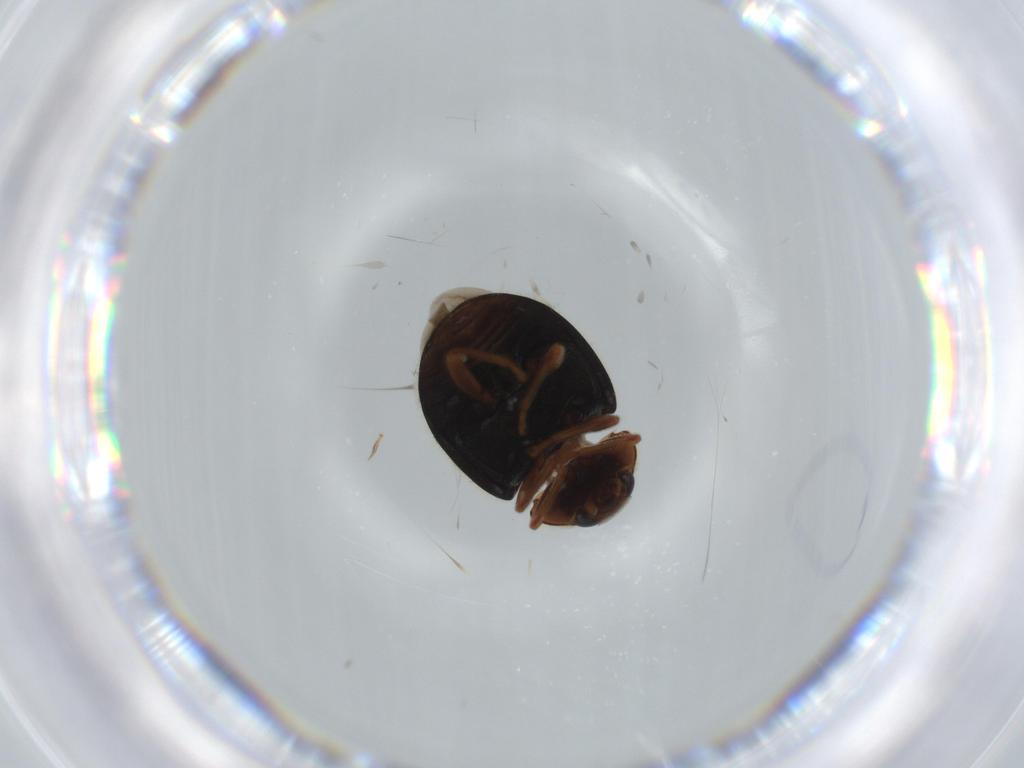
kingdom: Animalia
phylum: Arthropoda
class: Insecta
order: Coleoptera
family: Coccinellidae
